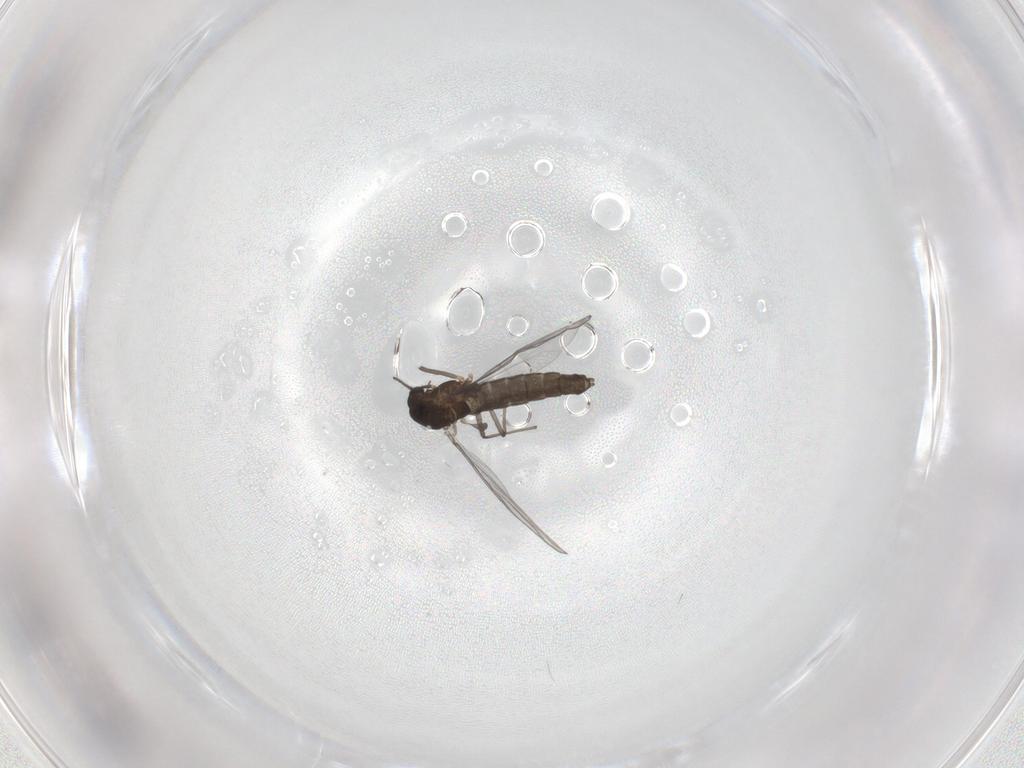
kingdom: Animalia
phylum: Arthropoda
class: Insecta
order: Diptera
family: Chironomidae
